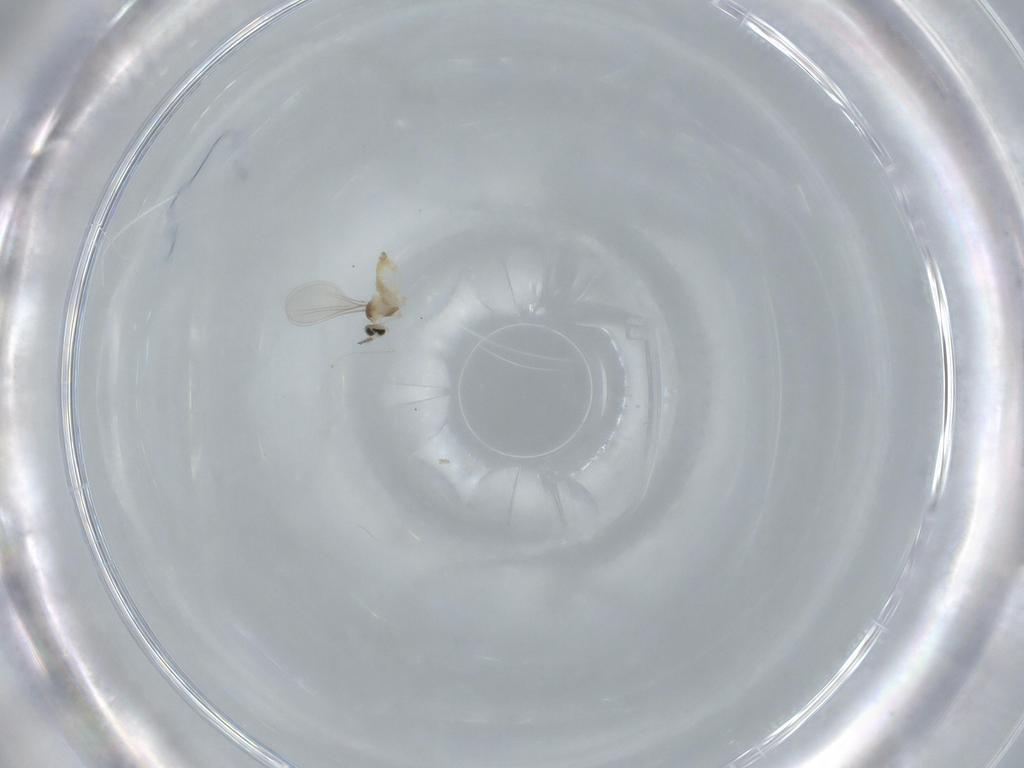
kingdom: Animalia
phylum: Arthropoda
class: Insecta
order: Diptera
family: Cecidomyiidae
